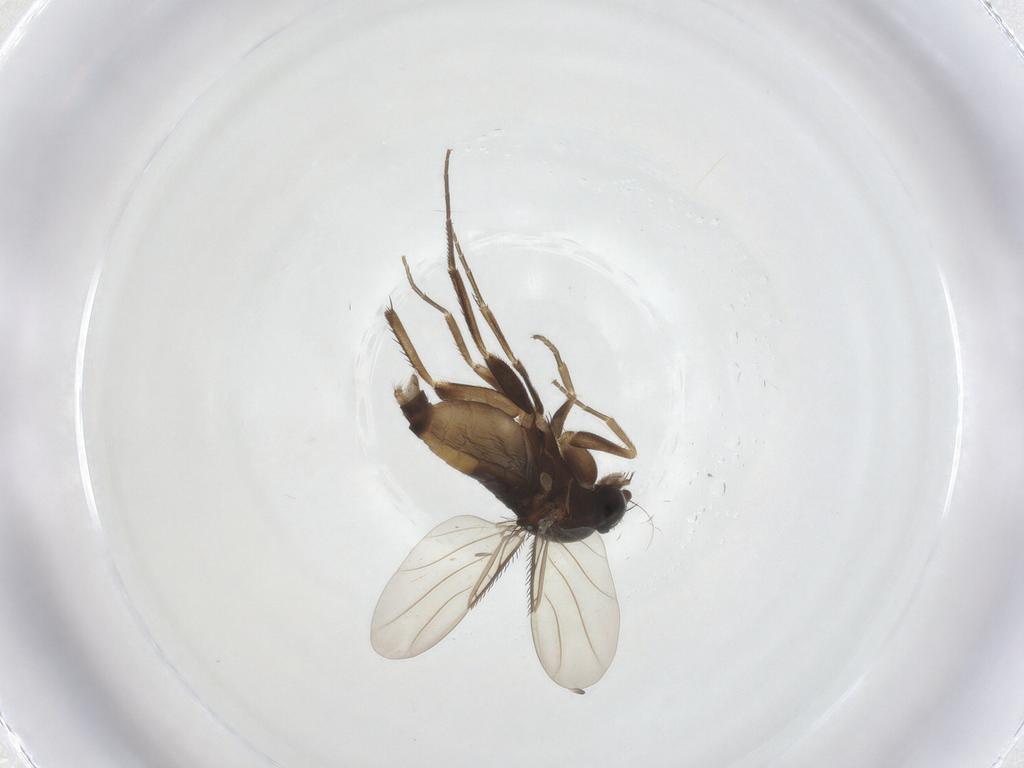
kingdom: Animalia
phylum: Arthropoda
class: Insecta
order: Diptera
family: Phoridae
